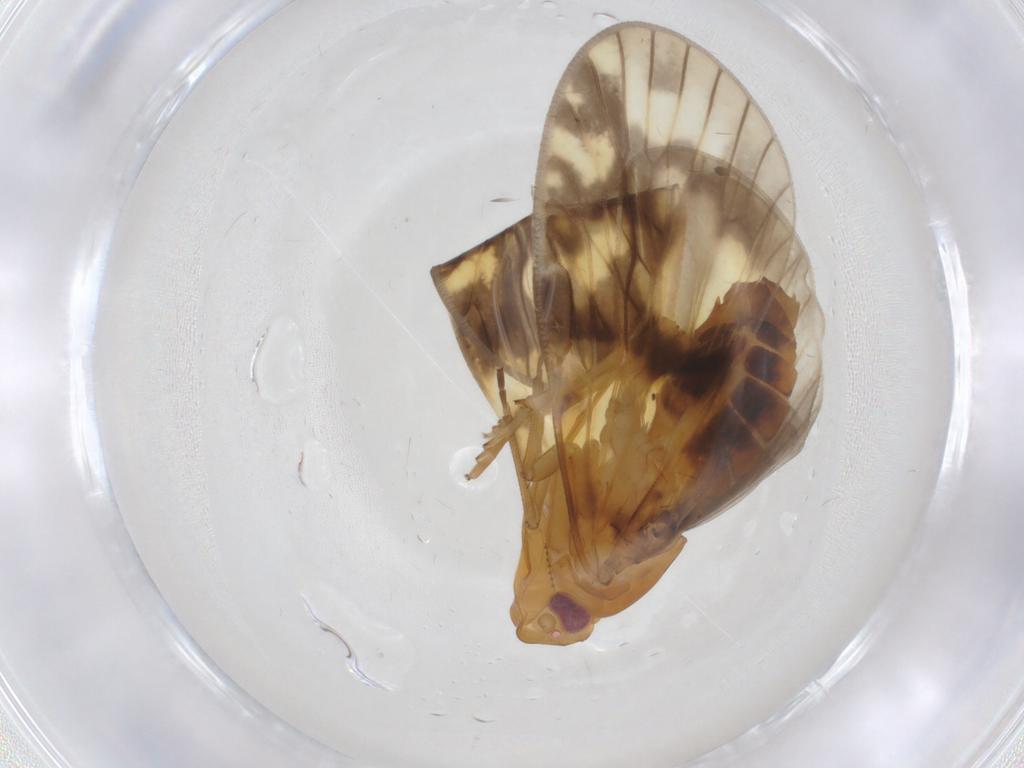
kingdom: Animalia
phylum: Arthropoda
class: Insecta
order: Hemiptera
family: Cixiidae
